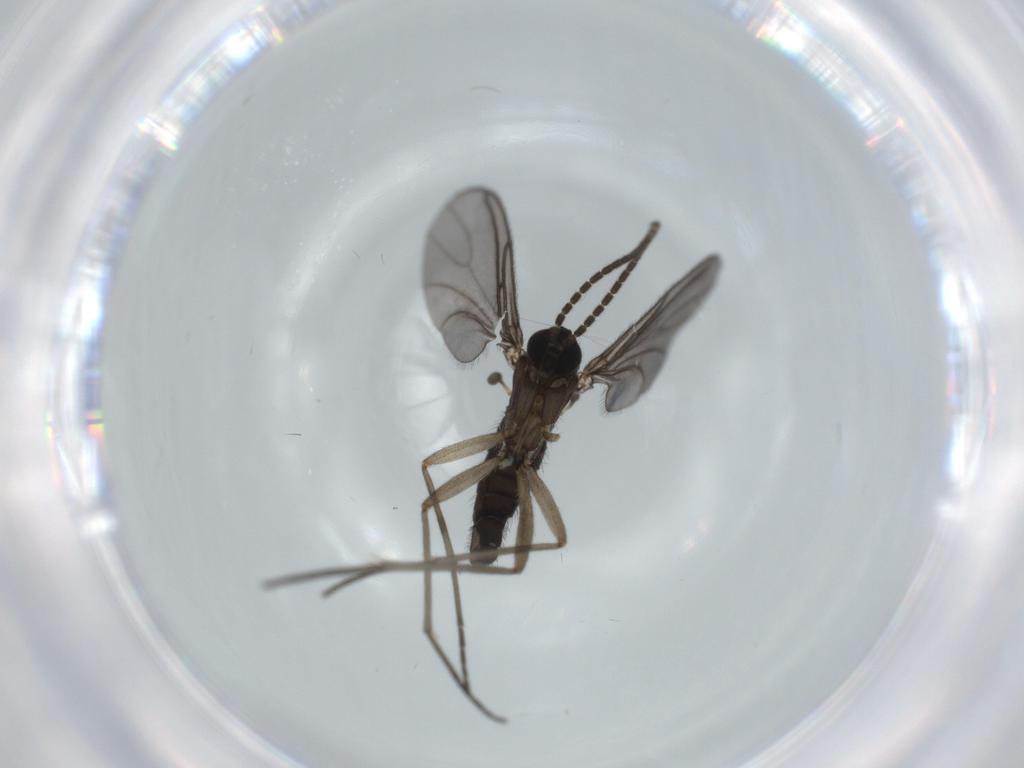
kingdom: Animalia
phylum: Arthropoda
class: Insecta
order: Diptera
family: Sciaridae
